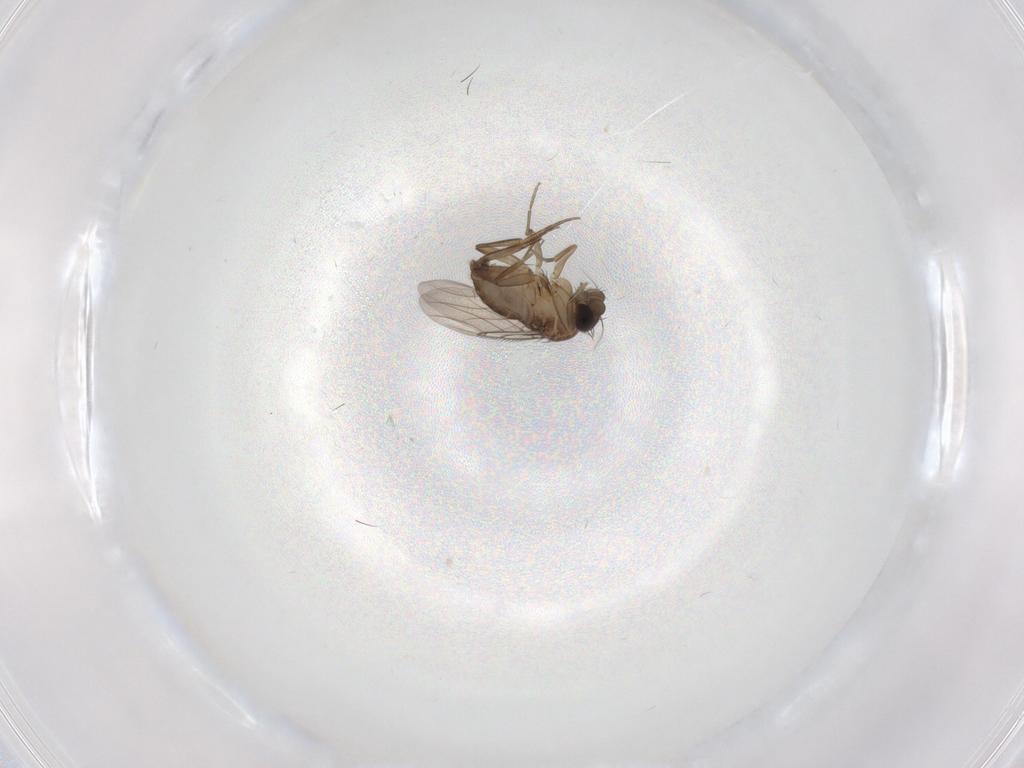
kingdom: Animalia
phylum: Arthropoda
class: Insecta
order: Diptera
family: Phoridae
